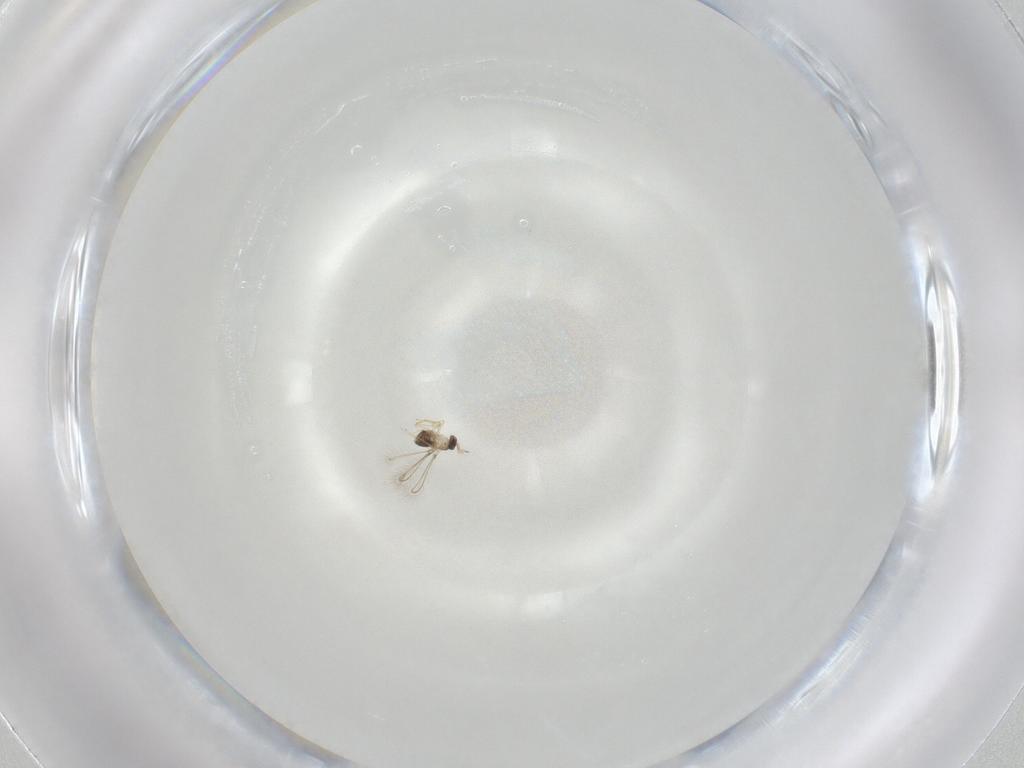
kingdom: Animalia
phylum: Arthropoda
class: Insecta
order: Hymenoptera
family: Mymaridae
